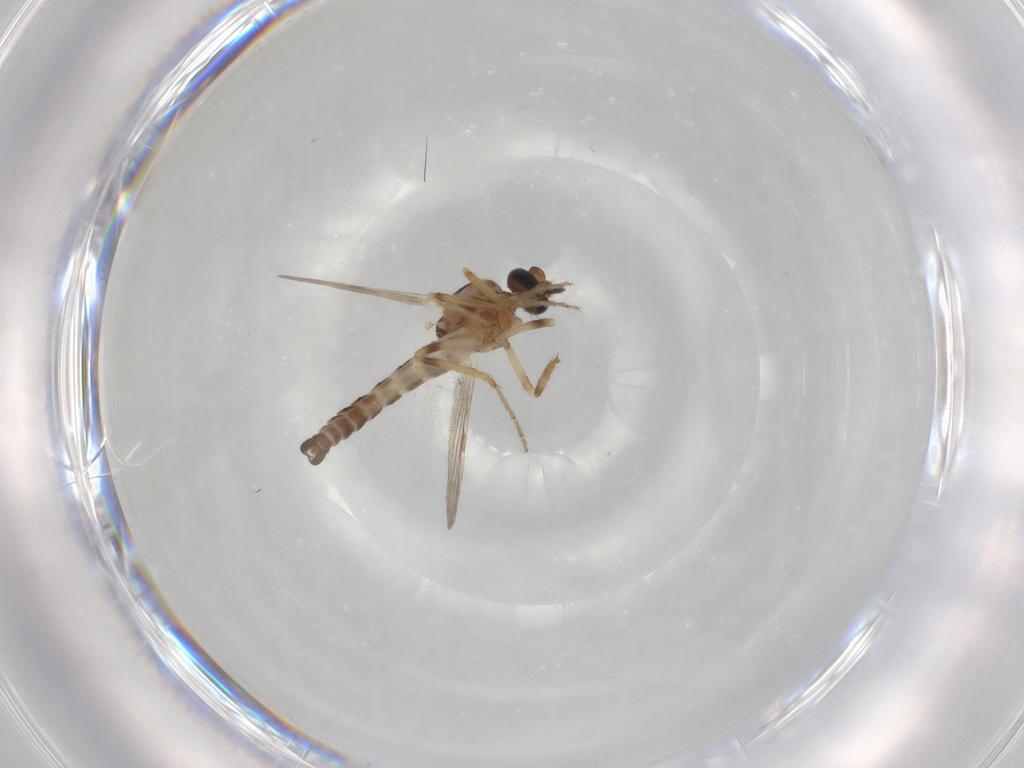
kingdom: Animalia
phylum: Arthropoda
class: Insecta
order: Diptera
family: Ceratopogonidae
